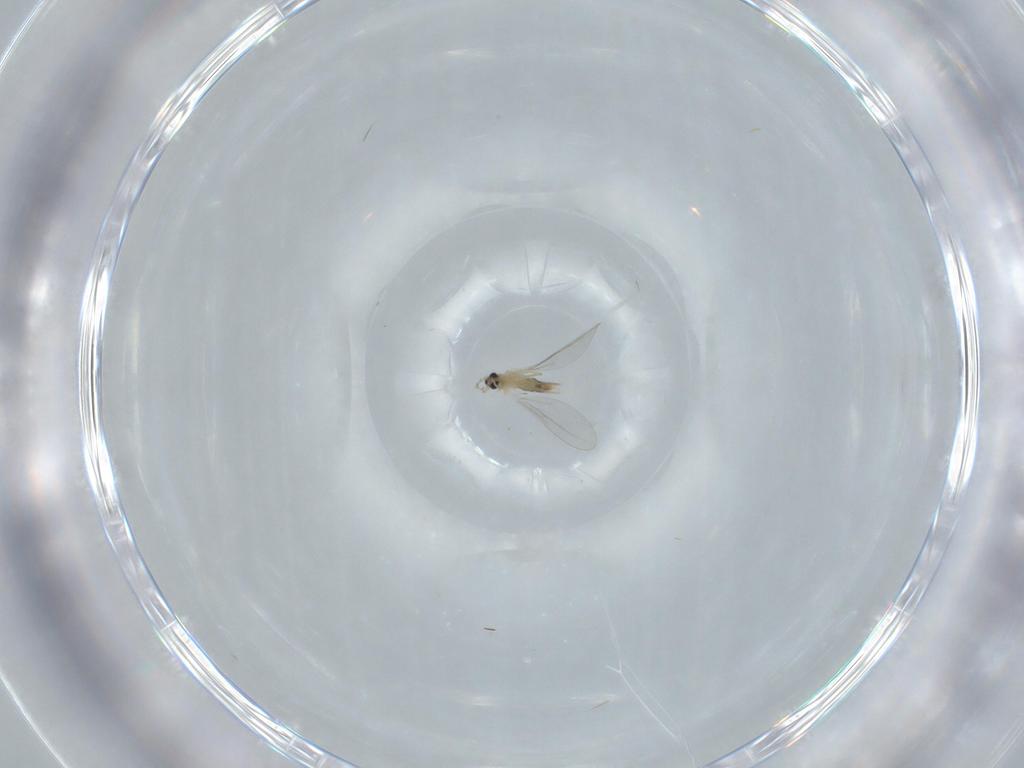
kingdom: Animalia
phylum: Arthropoda
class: Insecta
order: Diptera
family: Cecidomyiidae
